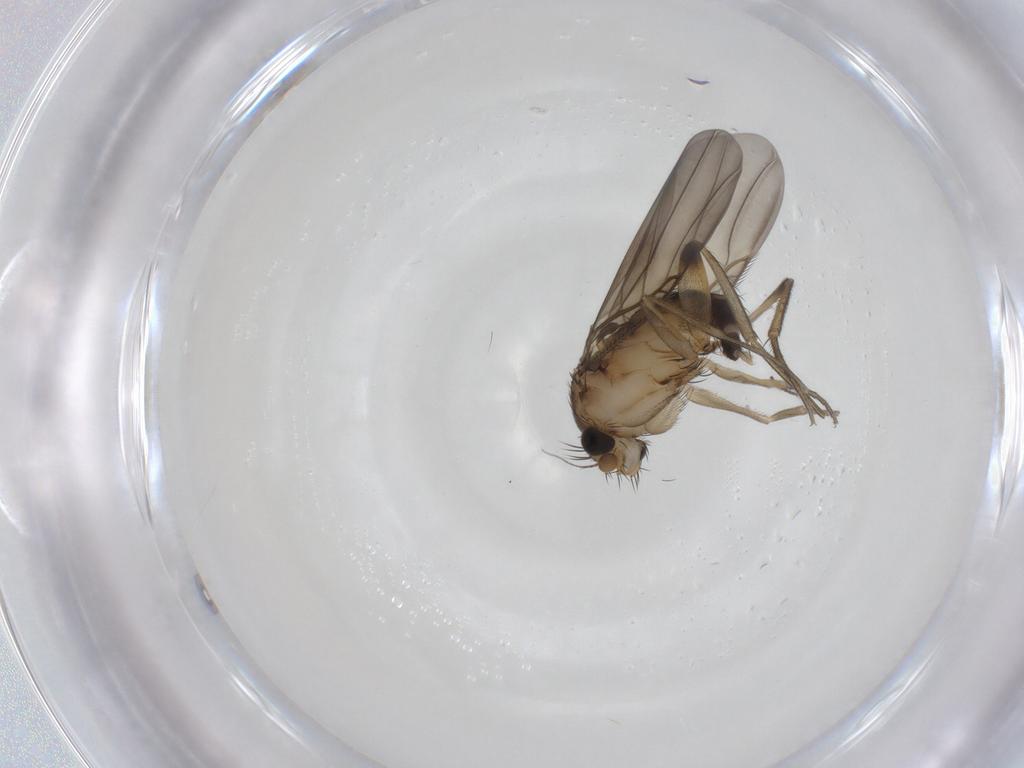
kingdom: Animalia
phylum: Arthropoda
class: Insecta
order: Diptera
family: Phoridae
